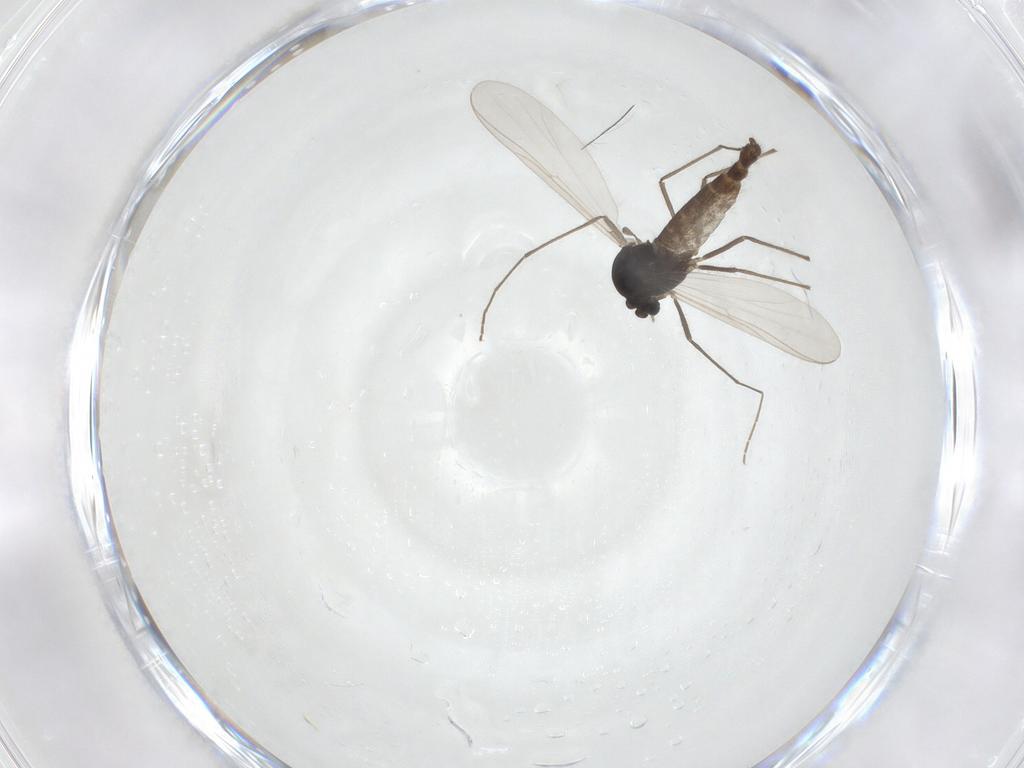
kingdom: Animalia
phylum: Arthropoda
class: Insecta
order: Diptera
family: Chironomidae
